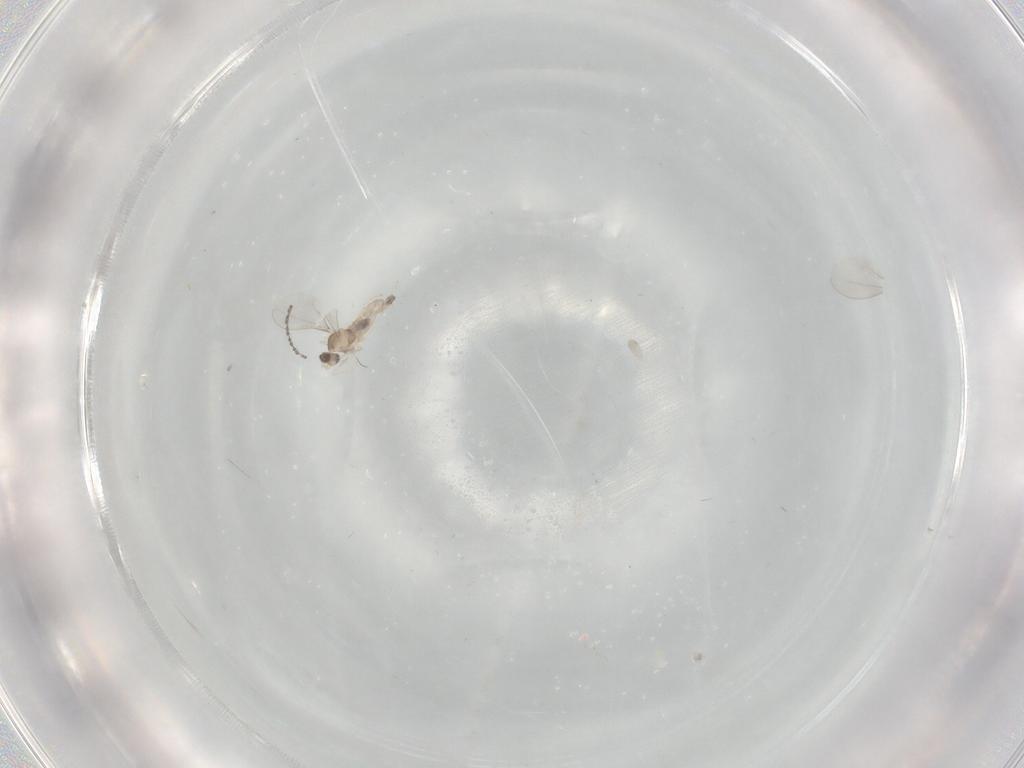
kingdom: Animalia
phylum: Arthropoda
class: Insecta
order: Diptera
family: Cecidomyiidae
